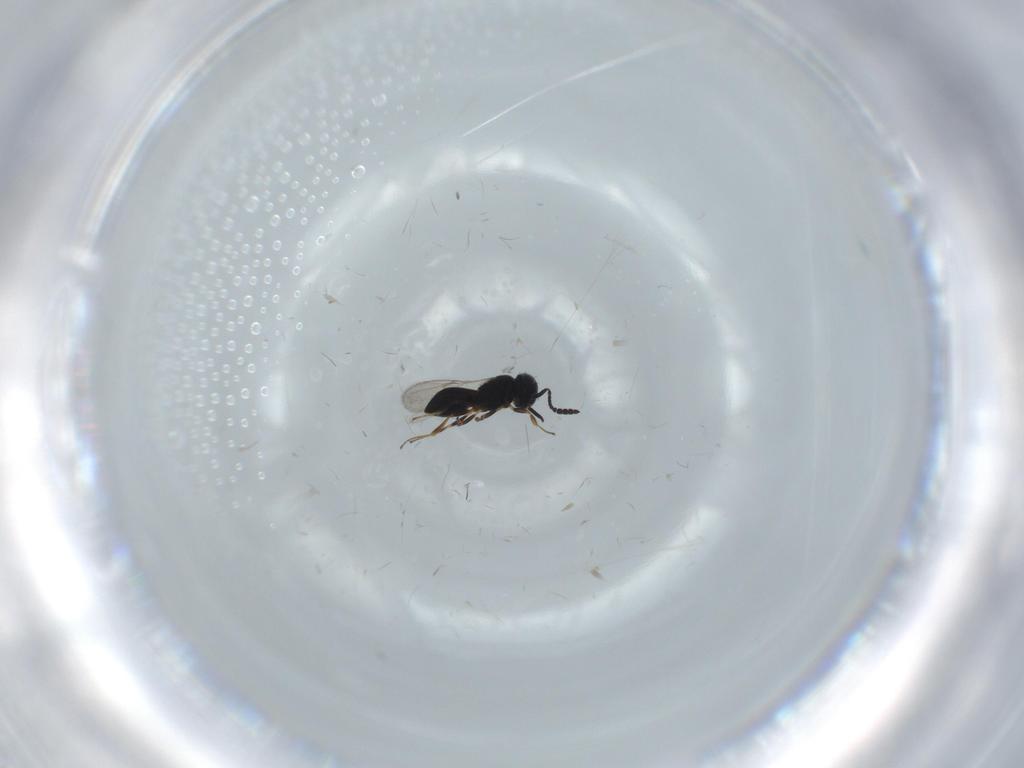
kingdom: Animalia
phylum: Arthropoda
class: Insecta
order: Hymenoptera
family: Scelionidae
